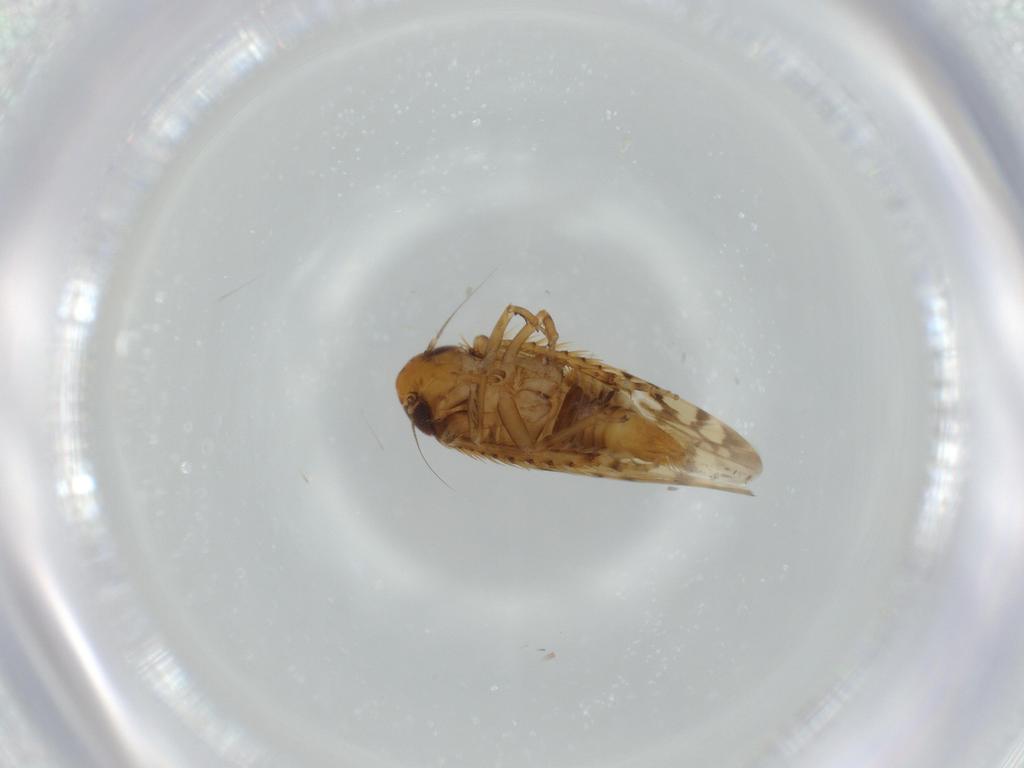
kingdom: Animalia
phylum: Arthropoda
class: Insecta
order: Hemiptera
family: Cicadellidae
